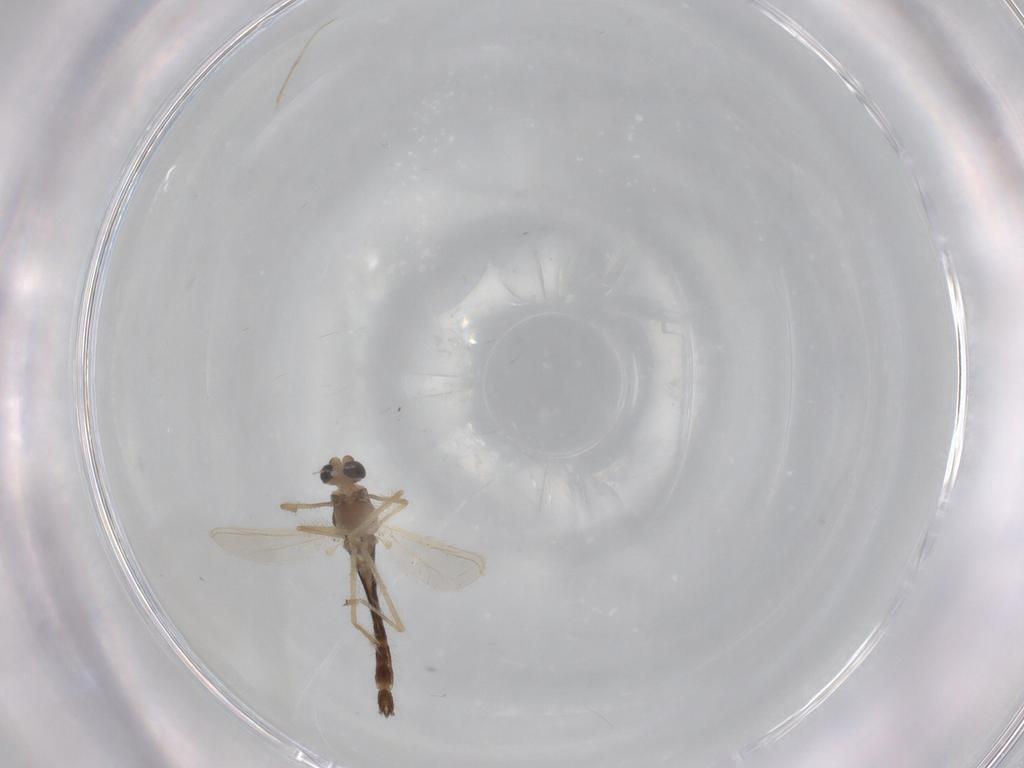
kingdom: Animalia
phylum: Arthropoda
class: Insecta
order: Diptera
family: Chironomidae
